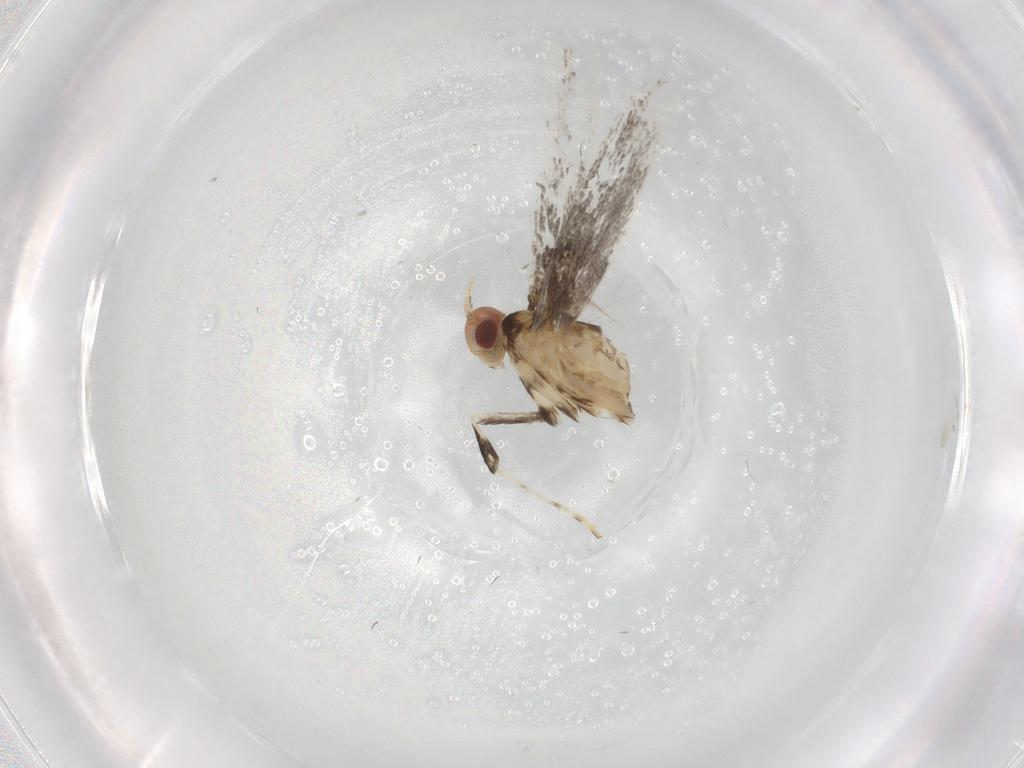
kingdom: Animalia
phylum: Arthropoda
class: Insecta
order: Lepidoptera
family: Gracillariidae
